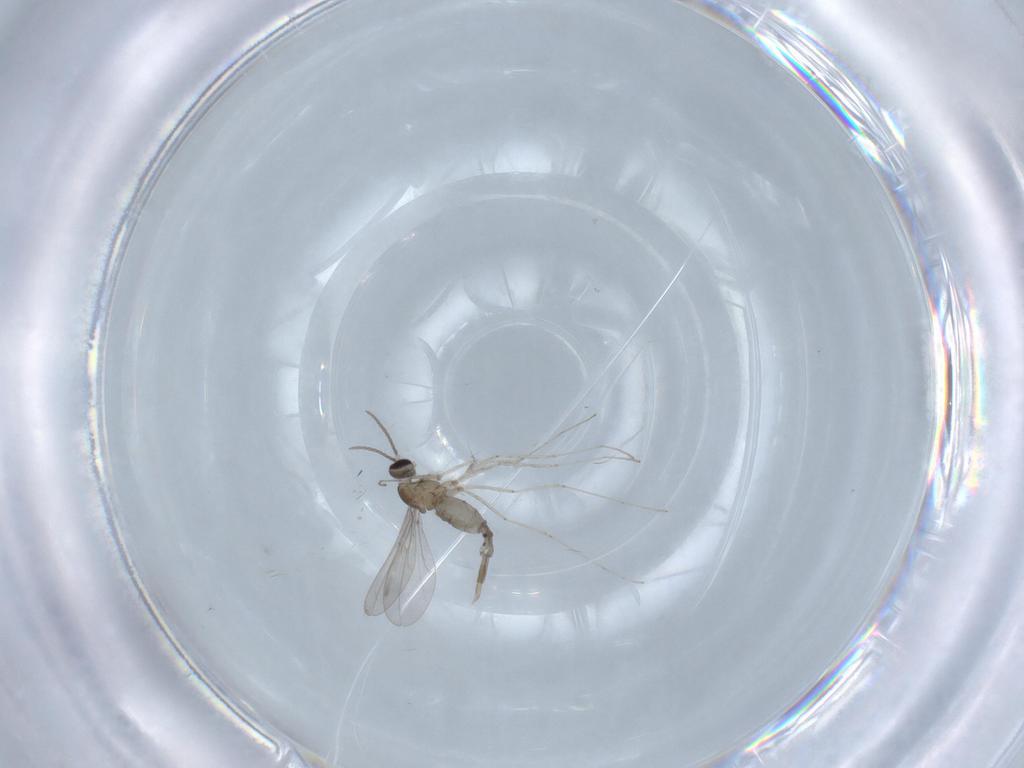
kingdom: Animalia
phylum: Arthropoda
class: Insecta
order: Diptera
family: Cecidomyiidae
